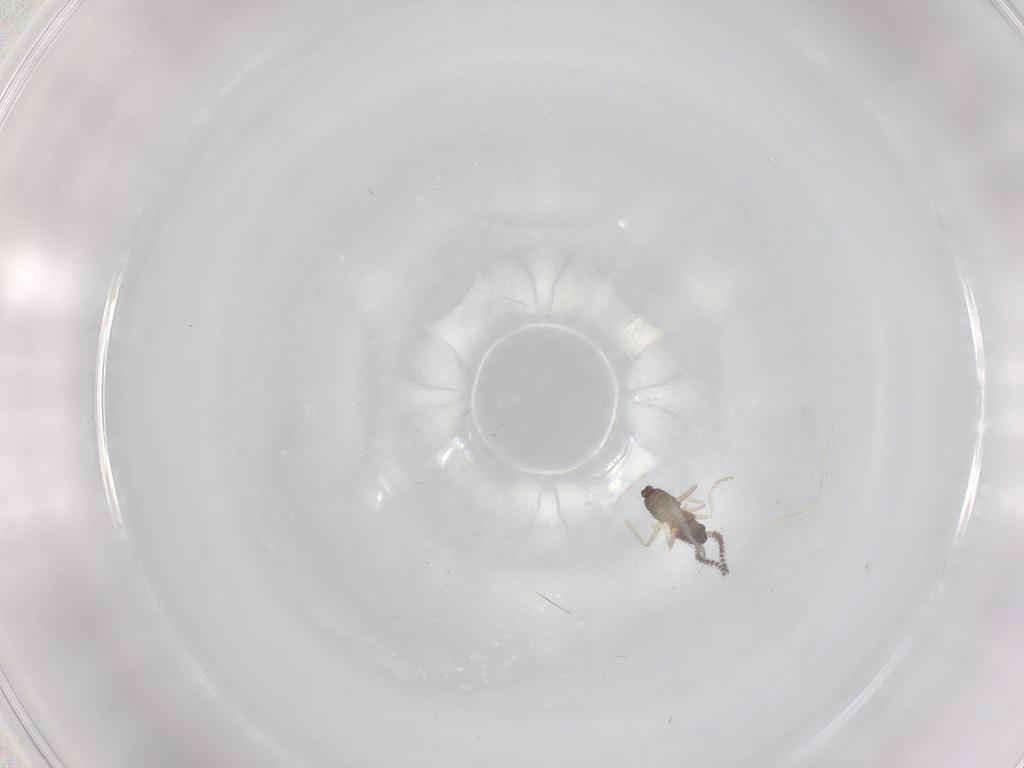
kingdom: Animalia
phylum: Arthropoda
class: Insecta
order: Diptera
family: Cecidomyiidae
